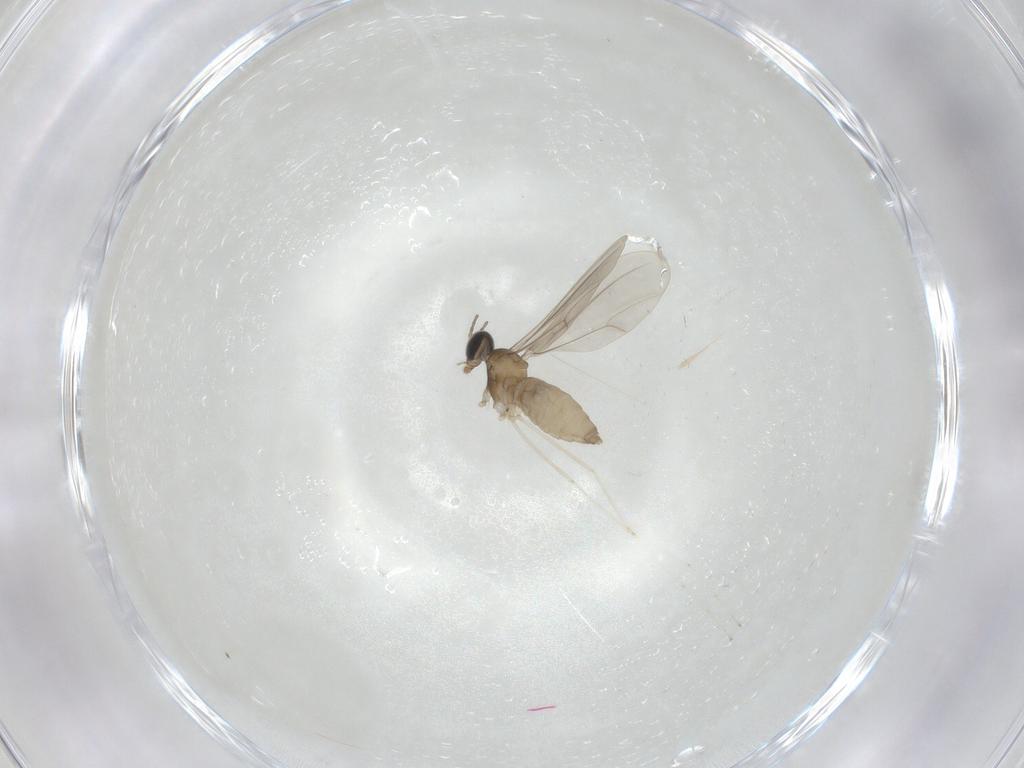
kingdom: Animalia
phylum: Arthropoda
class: Insecta
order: Diptera
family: Cecidomyiidae
